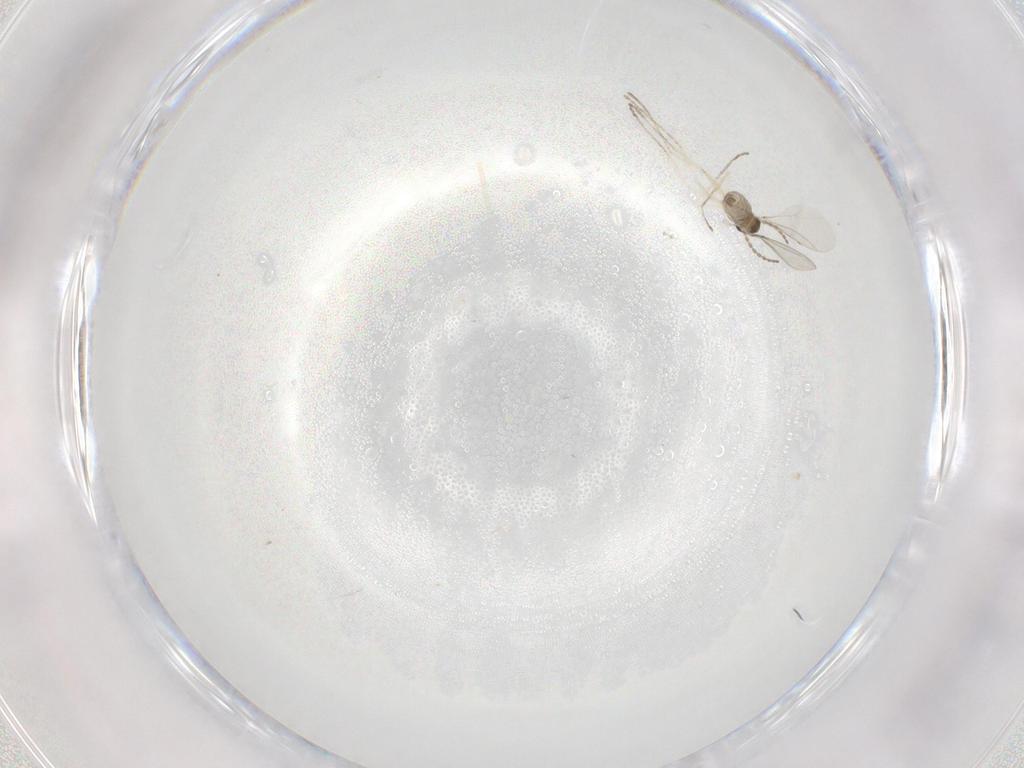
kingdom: Animalia
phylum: Arthropoda
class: Insecta
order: Diptera
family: Cecidomyiidae
